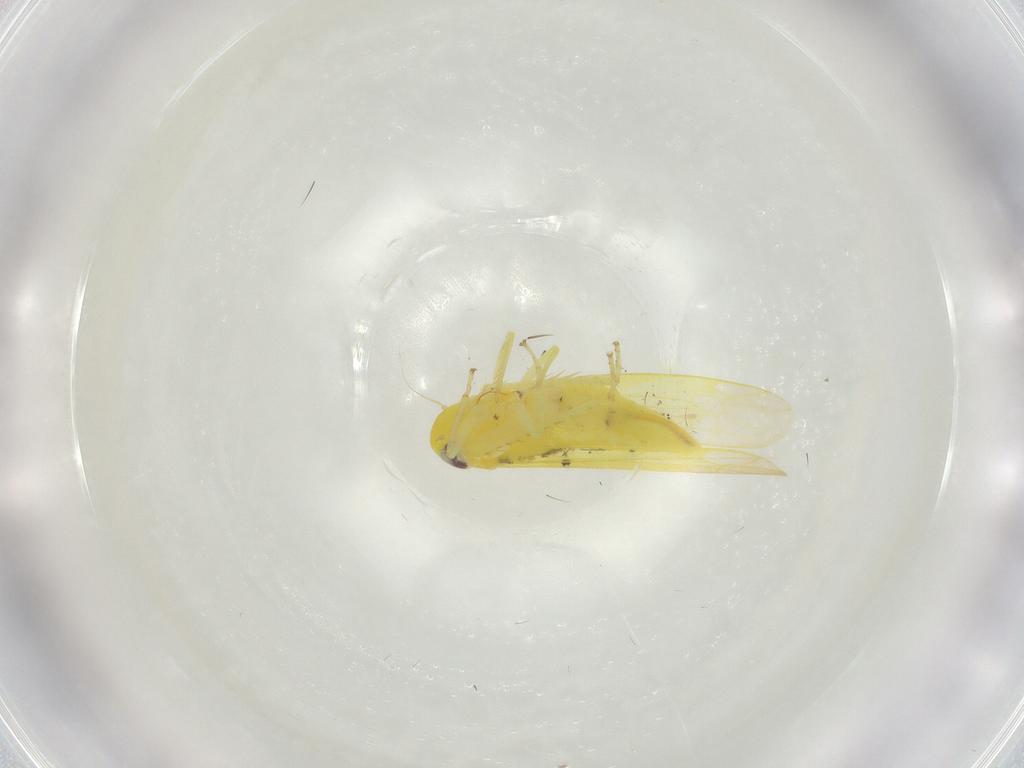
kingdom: Animalia
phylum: Arthropoda
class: Insecta
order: Hemiptera
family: Cicadellidae
